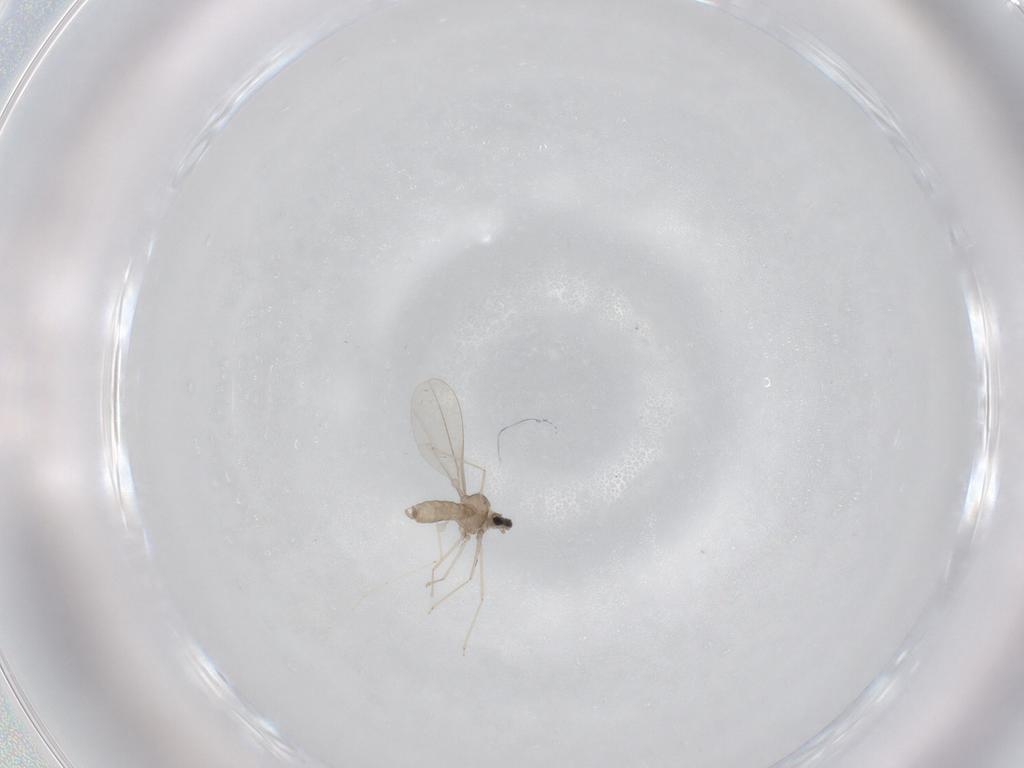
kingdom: Animalia
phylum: Arthropoda
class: Insecta
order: Diptera
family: Cecidomyiidae
